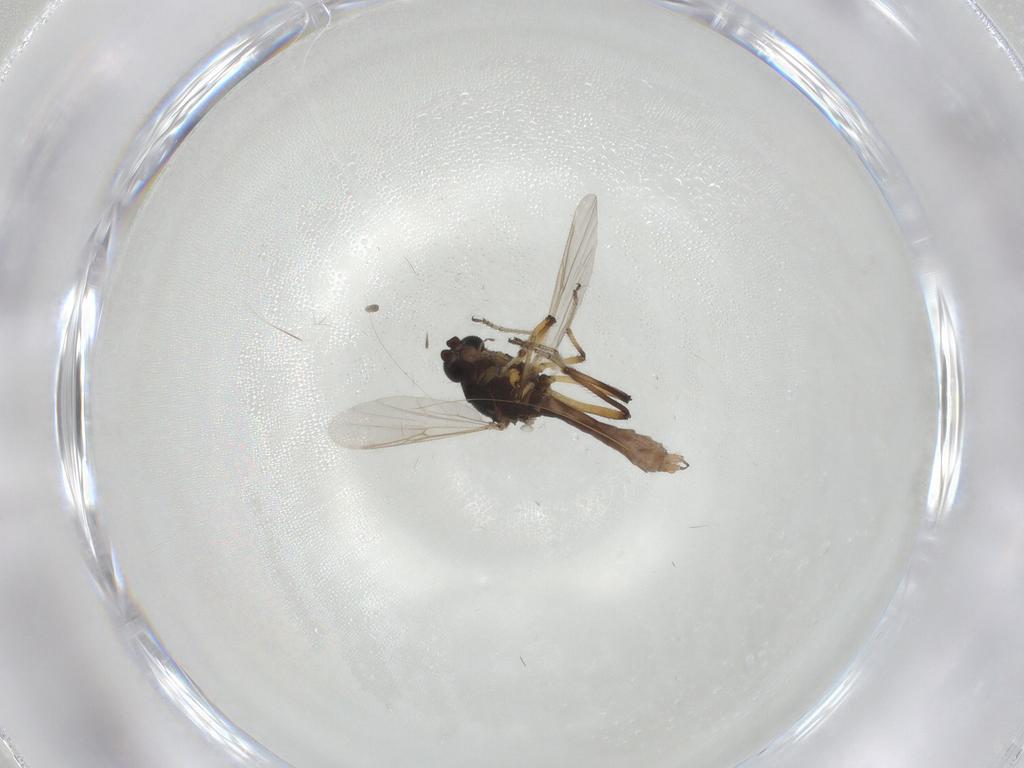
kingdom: Animalia
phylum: Arthropoda
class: Insecta
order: Diptera
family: Ceratopogonidae
